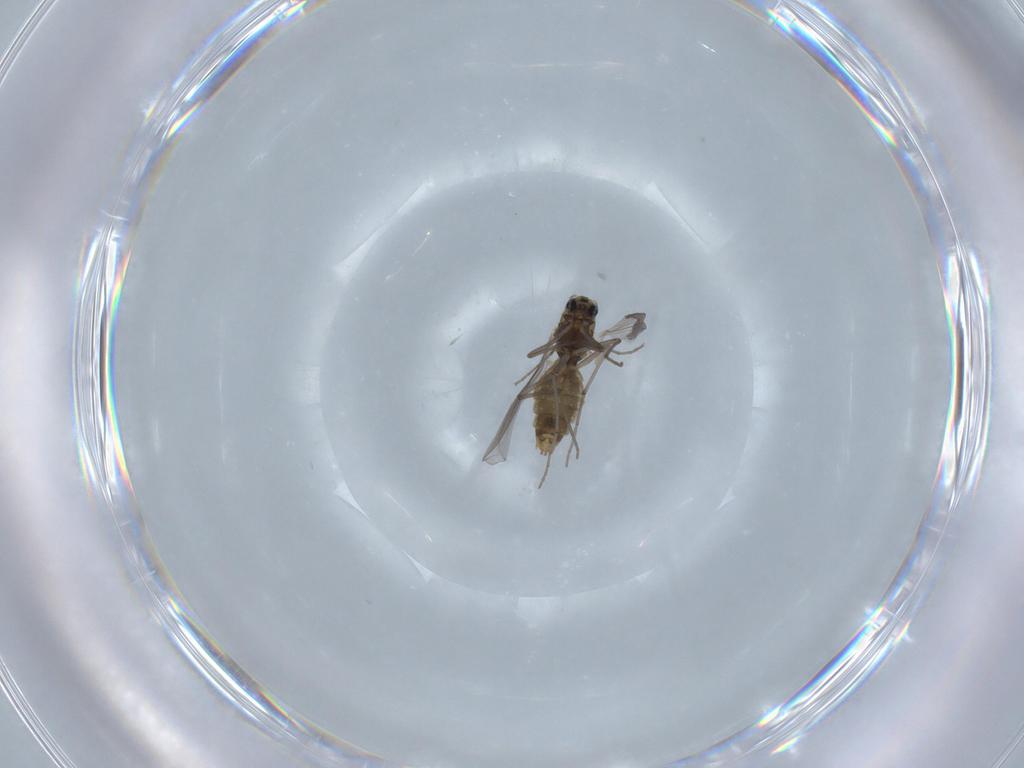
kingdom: Animalia
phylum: Arthropoda
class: Insecta
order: Diptera
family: Chironomidae
